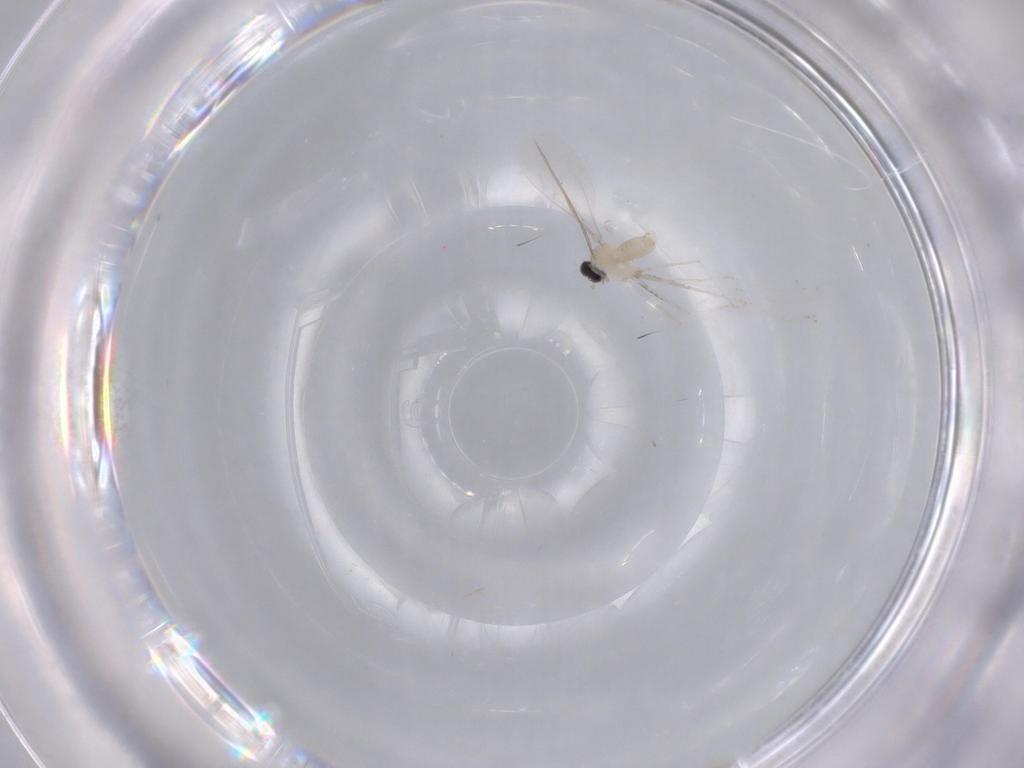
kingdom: Animalia
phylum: Arthropoda
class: Insecta
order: Diptera
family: Cecidomyiidae
